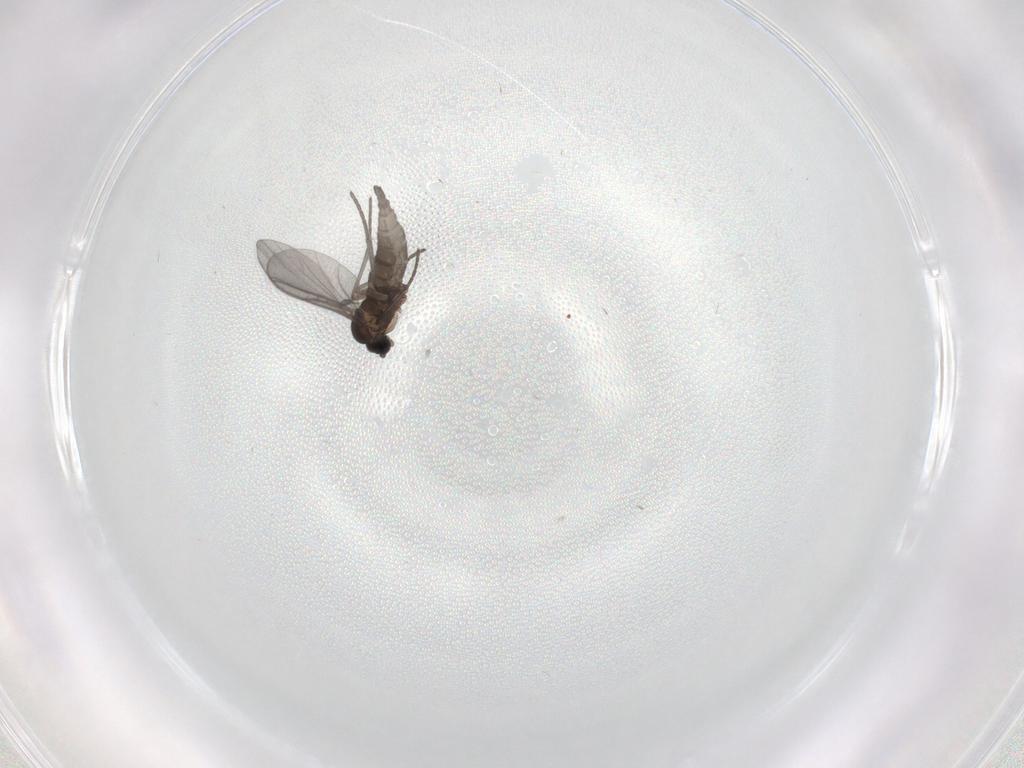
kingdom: Animalia
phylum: Arthropoda
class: Insecta
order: Diptera
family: Sciaridae
